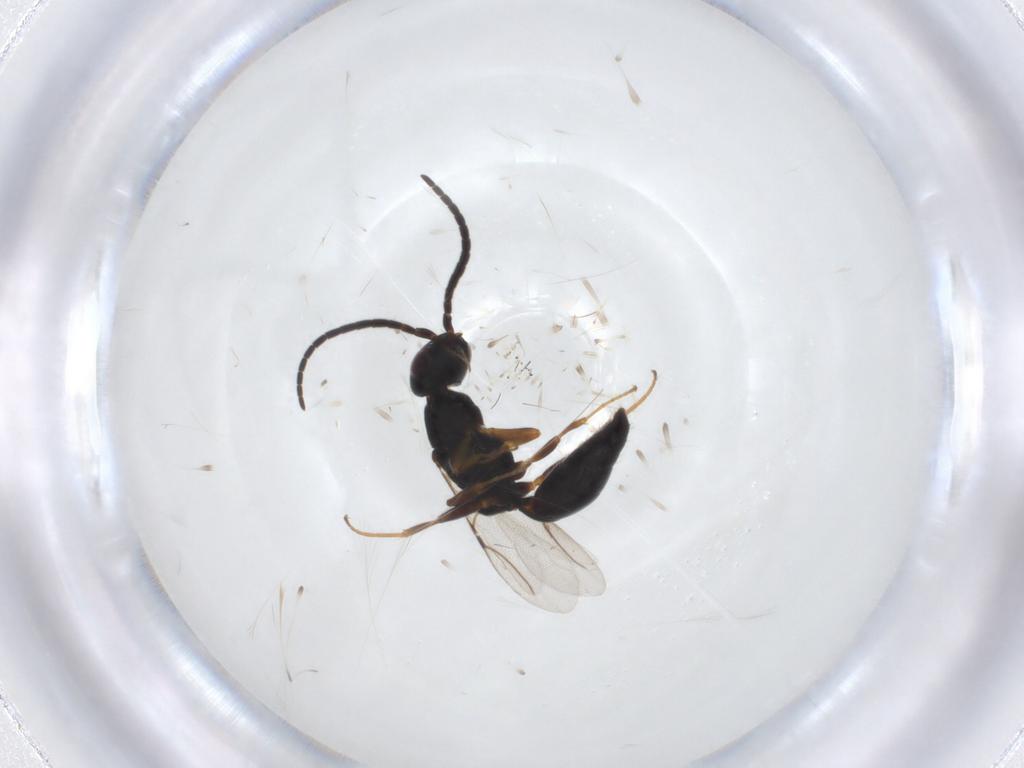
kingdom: Animalia
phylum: Arthropoda
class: Insecta
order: Hymenoptera
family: Bethylidae
